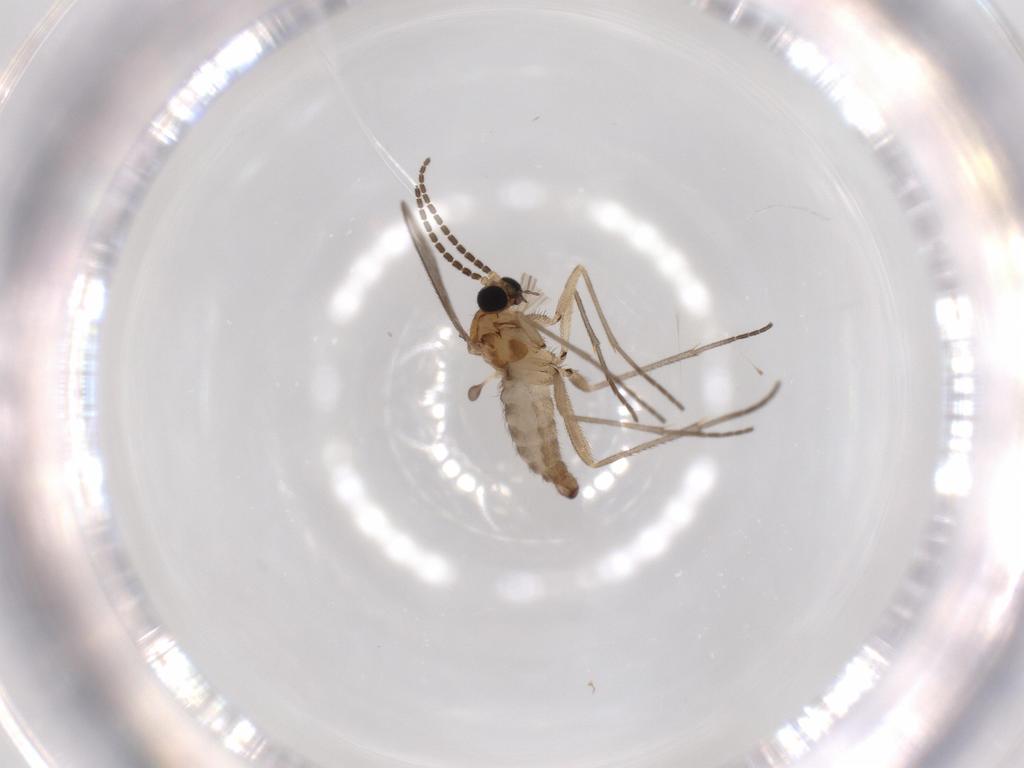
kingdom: Animalia
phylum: Arthropoda
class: Insecta
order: Diptera
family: Sciaridae
